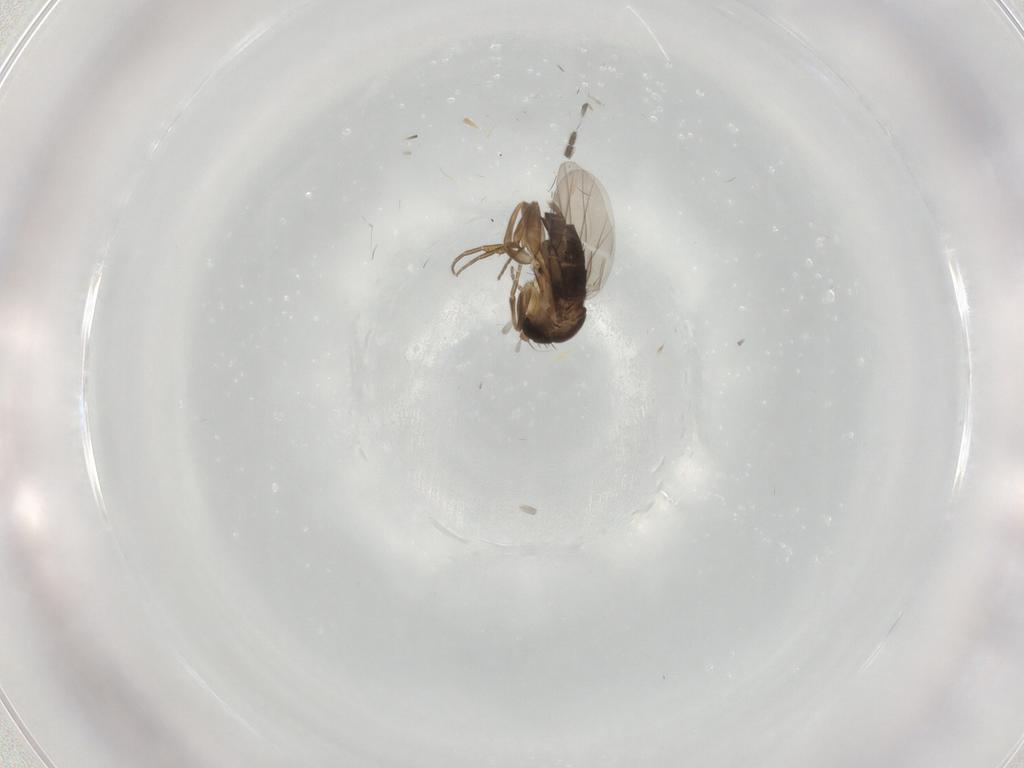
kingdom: Animalia
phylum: Arthropoda
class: Insecta
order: Diptera
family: Phoridae
